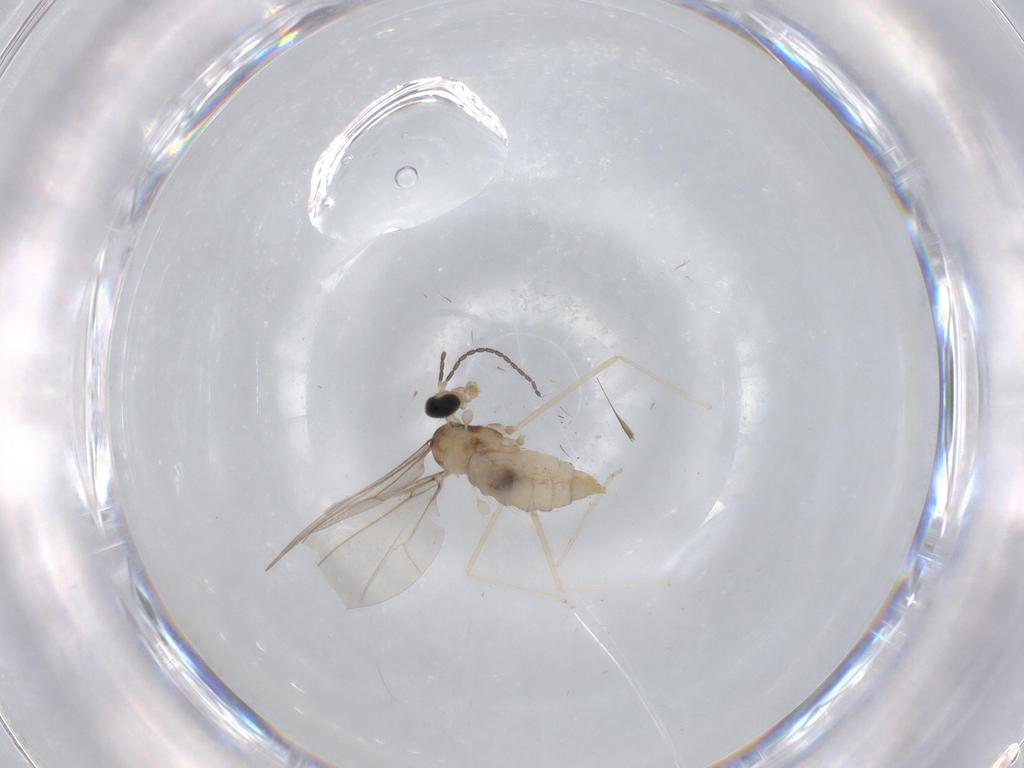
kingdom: Animalia
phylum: Arthropoda
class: Insecta
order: Diptera
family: Cecidomyiidae
